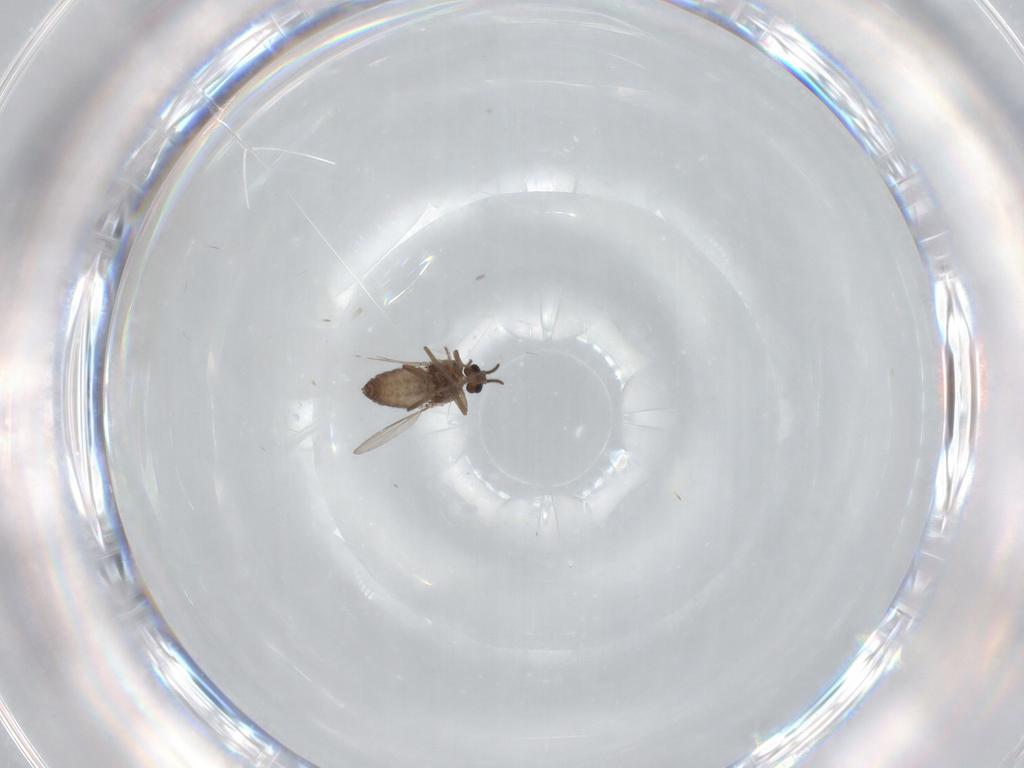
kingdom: Animalia
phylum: Arthropoda
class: Insecta
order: Diptera
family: Ceratopogonidae
